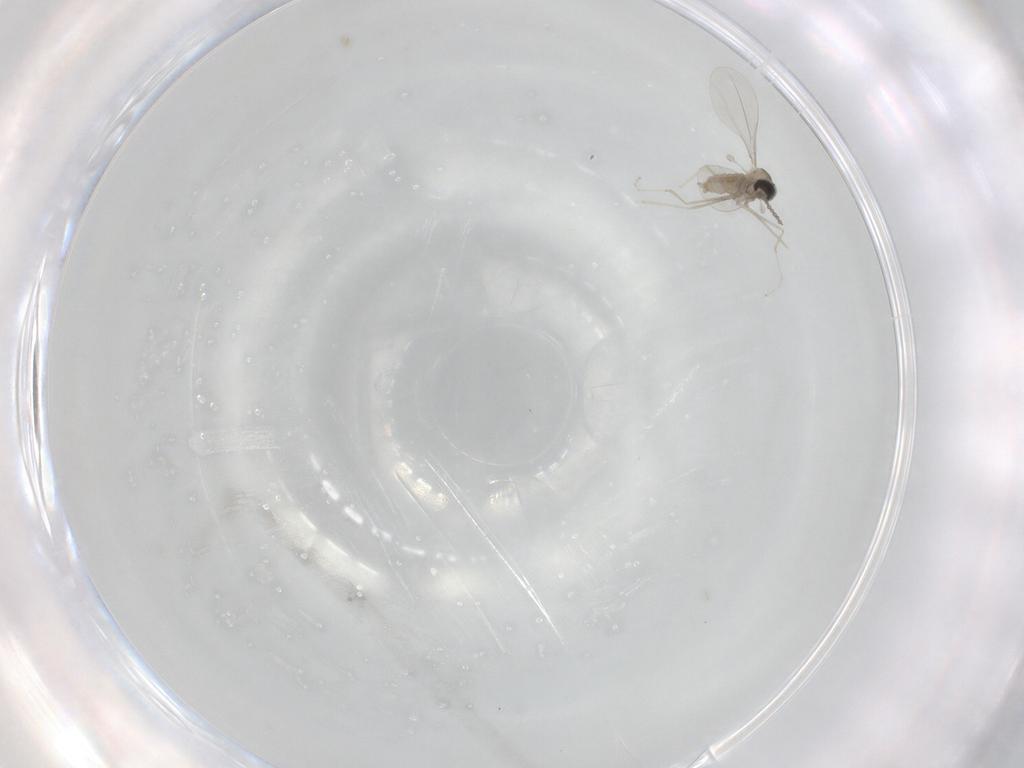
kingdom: Animalia
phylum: Arthropoda
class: Insecta
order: Diptera
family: Cecidomyiidae
